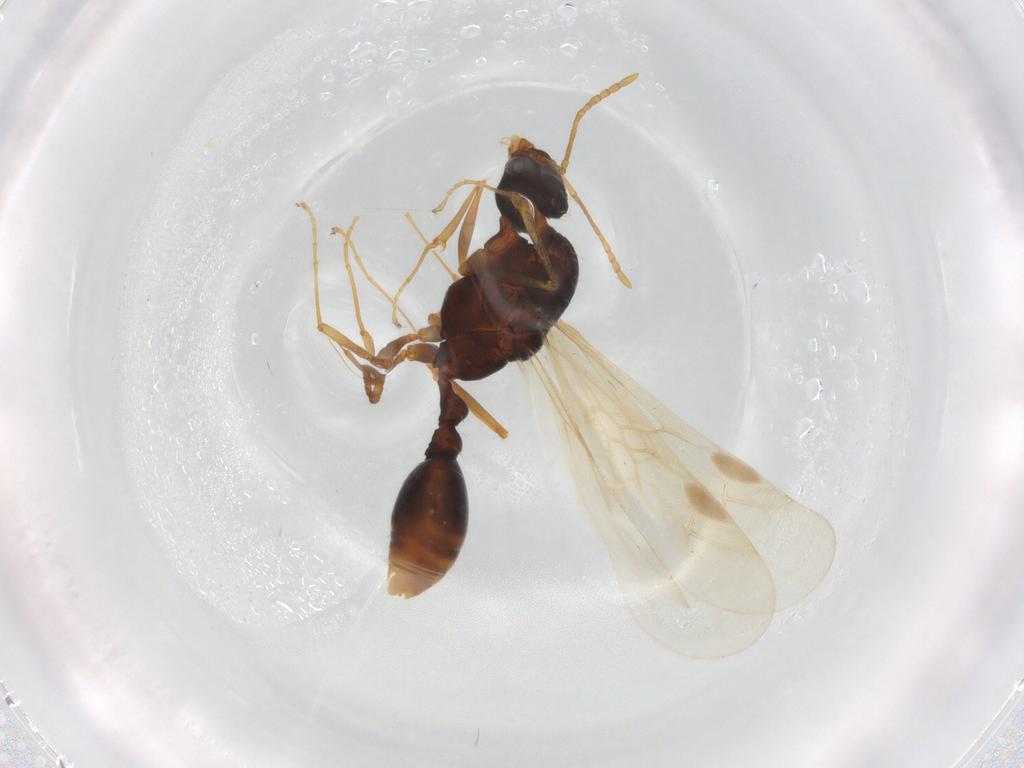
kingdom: Animalia
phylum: Arthropoda
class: Insecta
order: Hymenoptera
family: Formicidae
